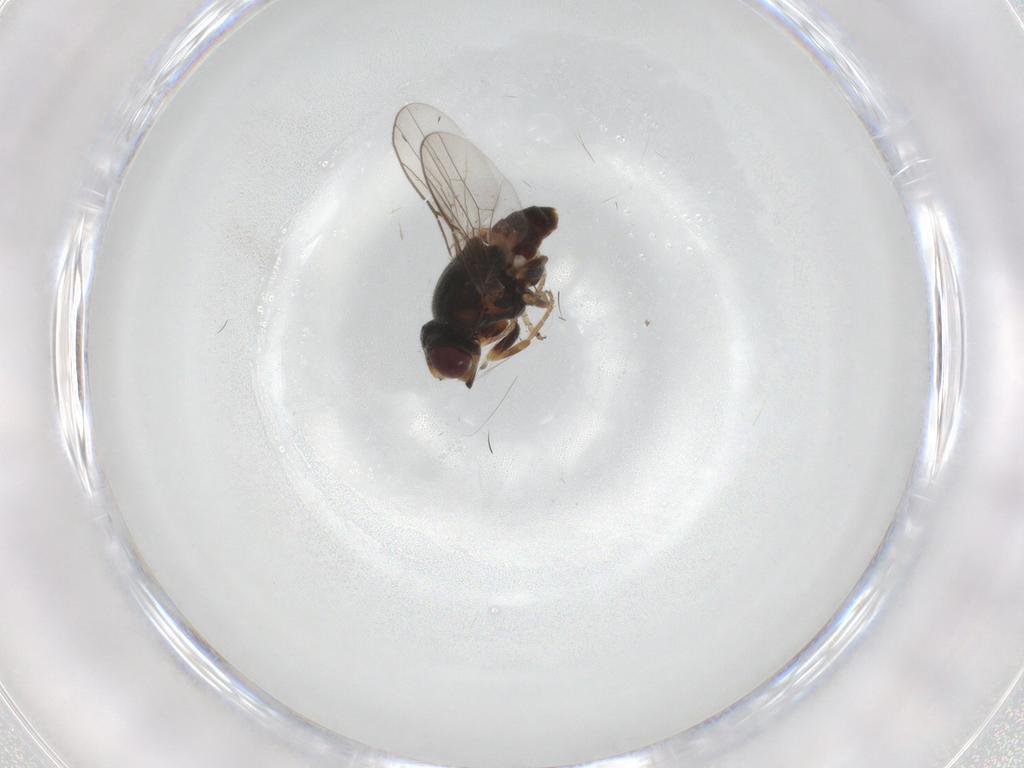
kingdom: Animalia
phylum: Arthropoda
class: Insecta
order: Diptera
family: Chloropidae
